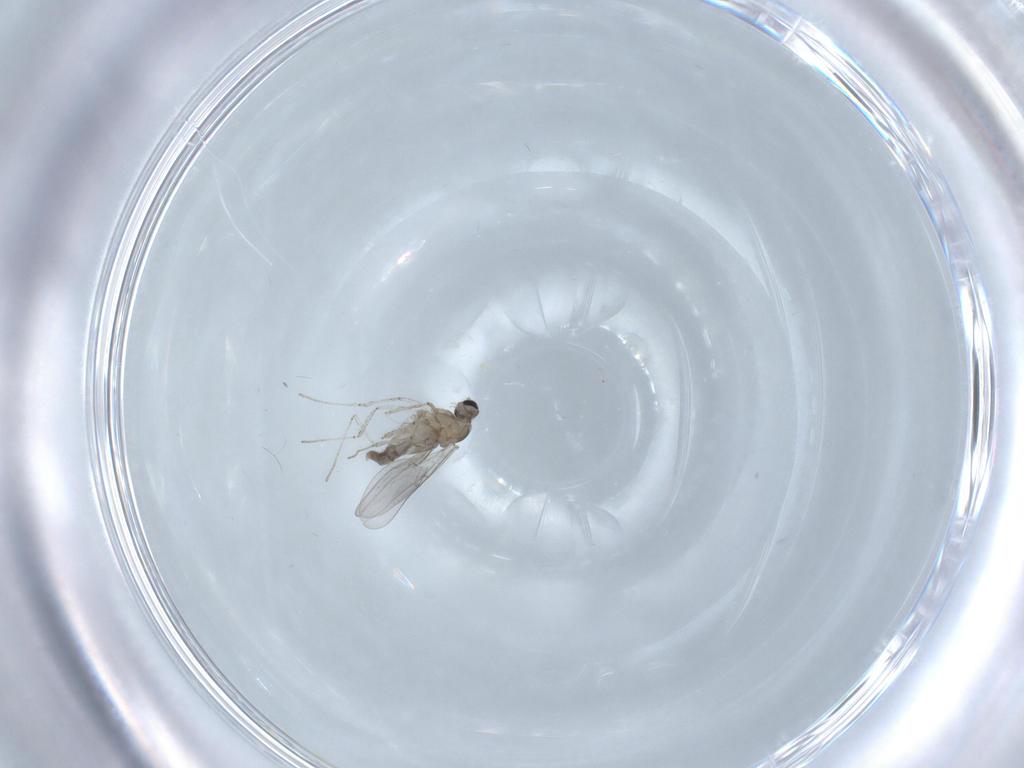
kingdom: Animalia
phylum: Arthropoda
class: Insecta
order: Diptera
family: Cecidomyiidae
